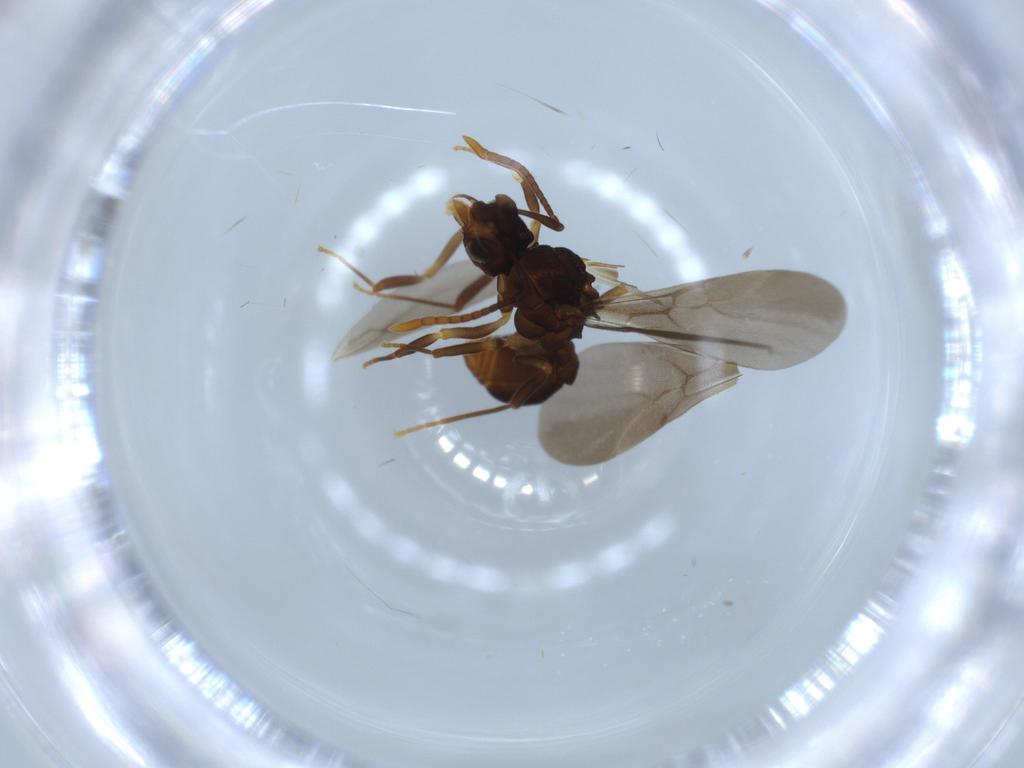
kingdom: Animalia
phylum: Arthropoda
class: Insecta
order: Hymenoptera
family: Formicidae
